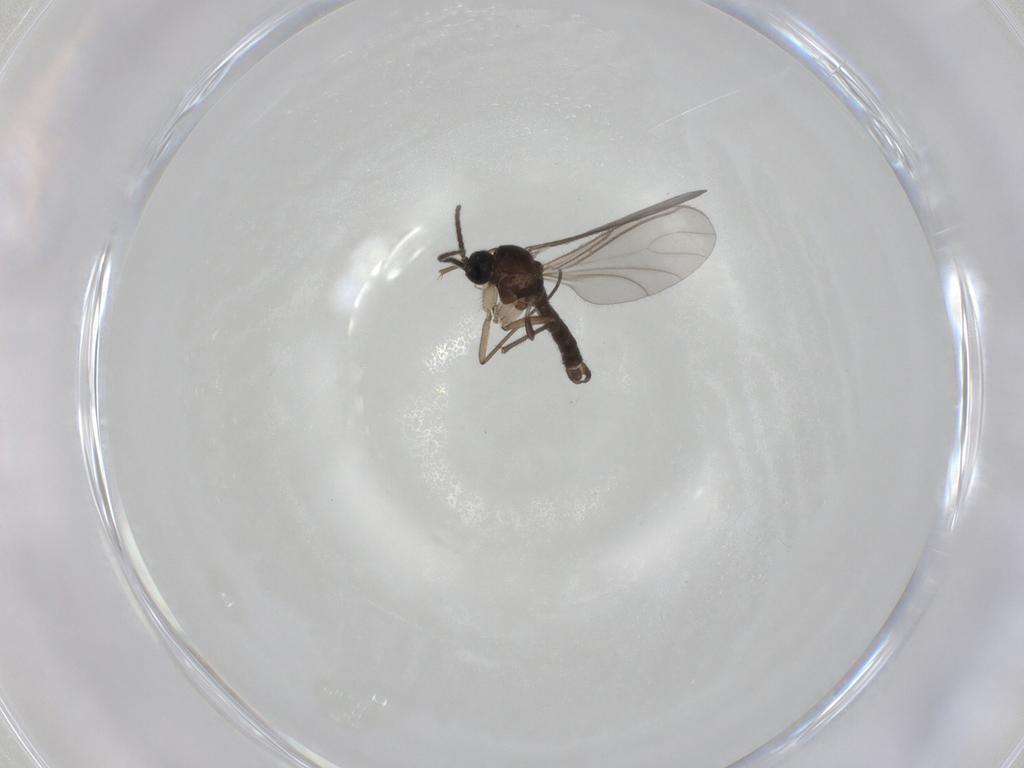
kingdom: Animalia
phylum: Arthropoda
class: Insecta
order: Diptera
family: Sciaridae
